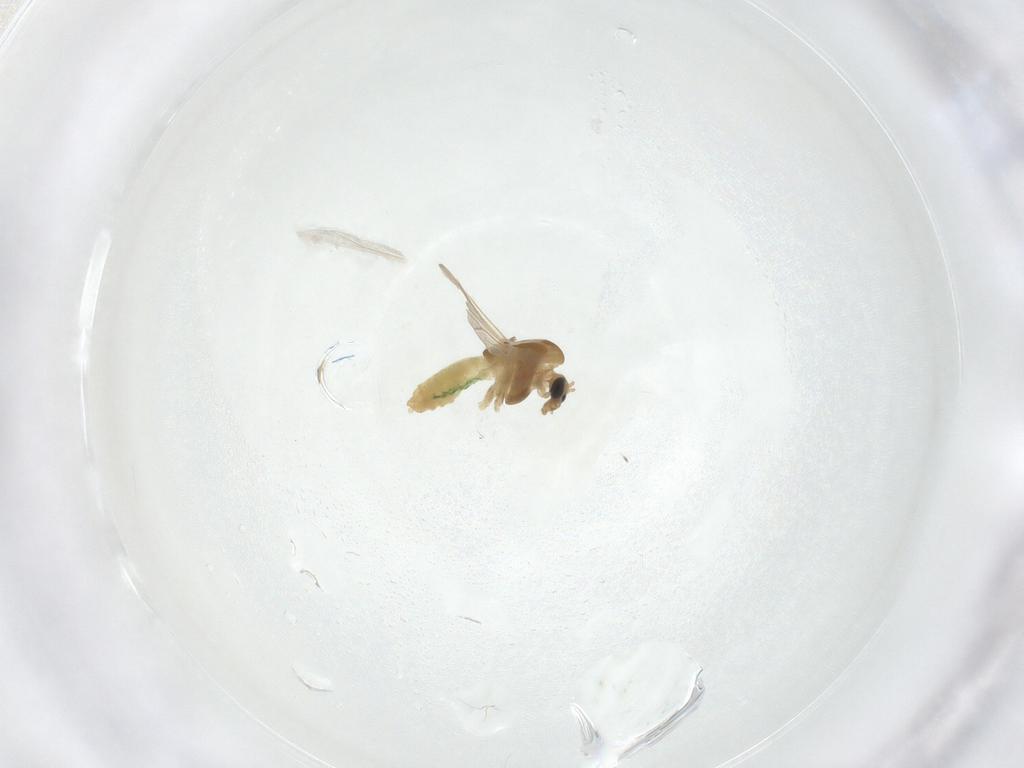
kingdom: Animalia
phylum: Arthropoda
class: Insecta
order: Diptera
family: Chironomidae
